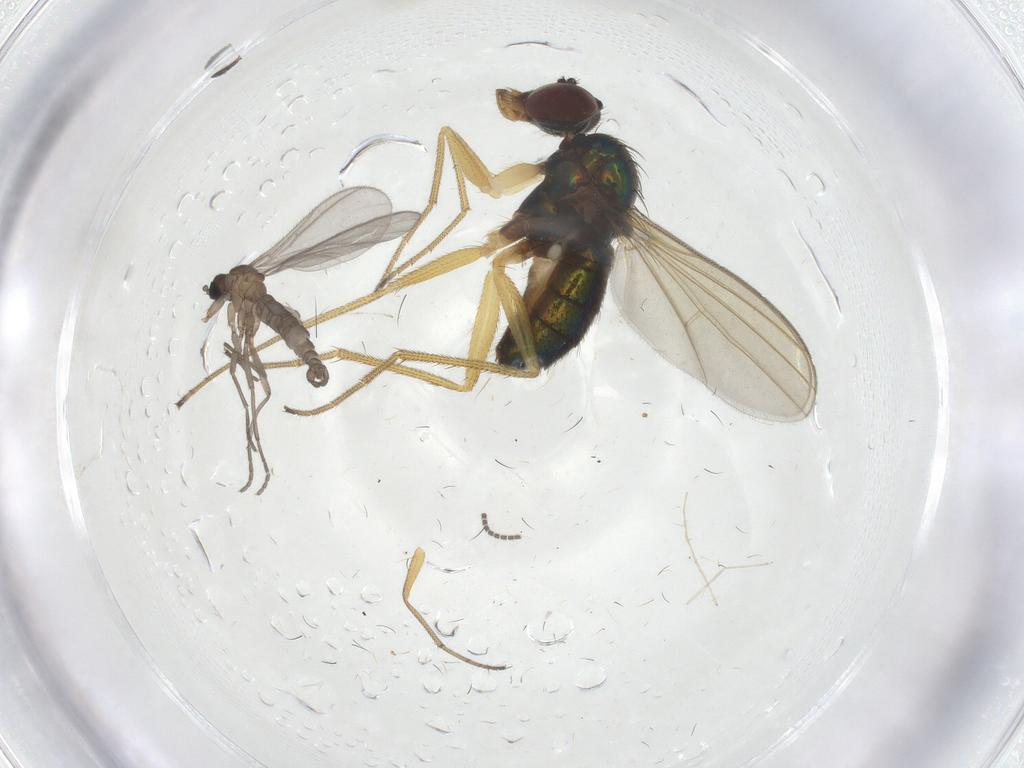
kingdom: Animalia
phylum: Arthropoda
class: Insecta
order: Diptera
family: Dolichopodidae
